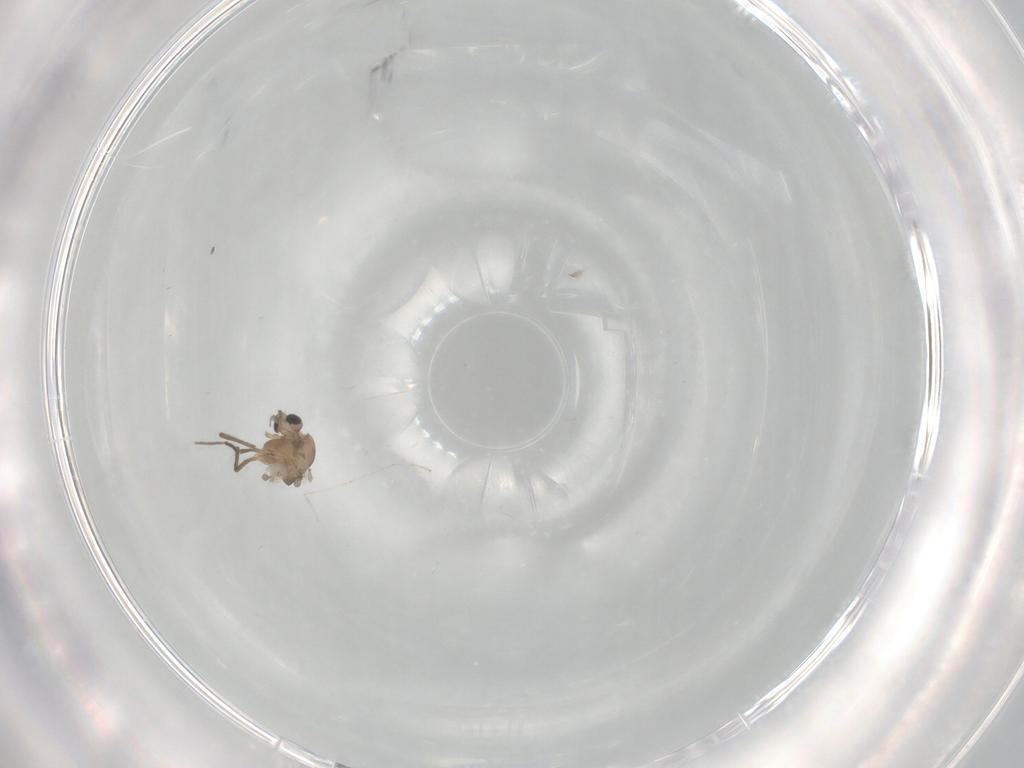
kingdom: Animalia
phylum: Arthropoda
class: Insecta
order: Diptera
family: Chironomidae
